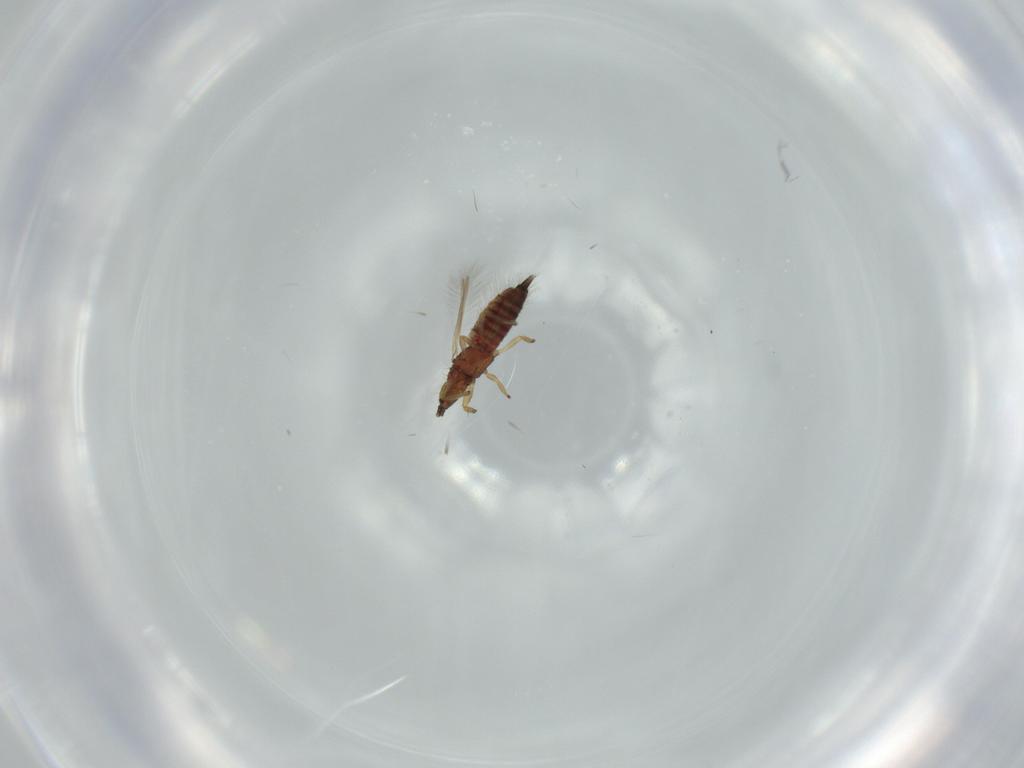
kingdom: Animalia
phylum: Arthropoda
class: Insecta
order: Thysanoptera
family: Phlaeothripidae
